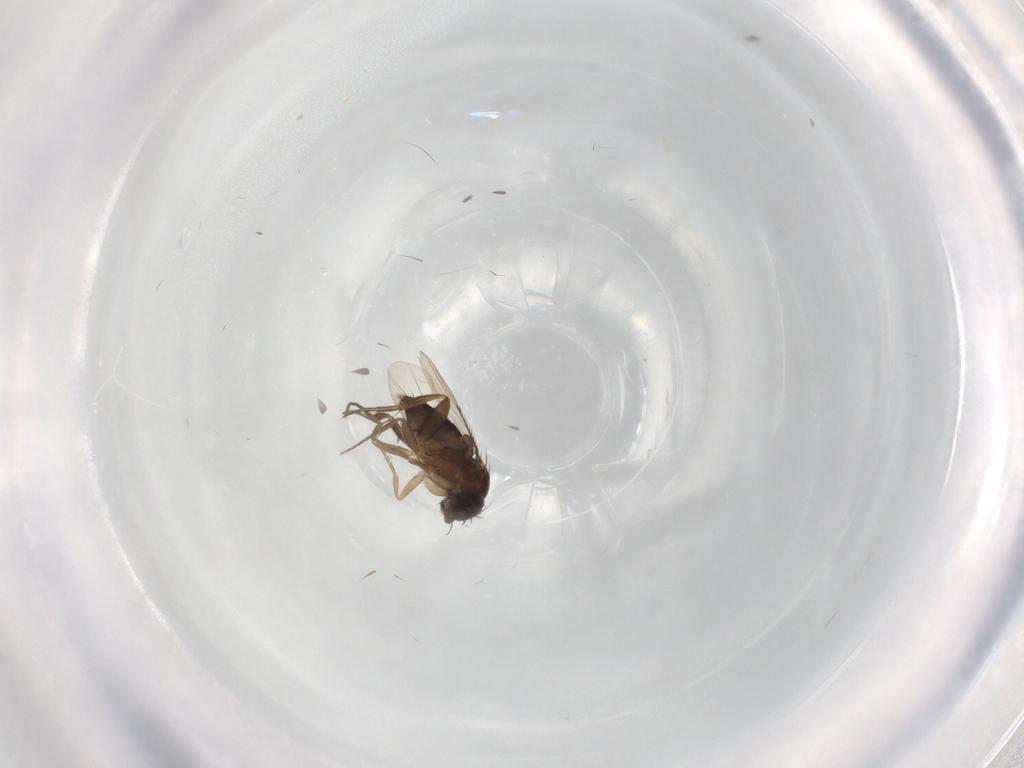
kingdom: Animalia
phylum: Arthropoda
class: Insecta
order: Diptera
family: Phoridae
